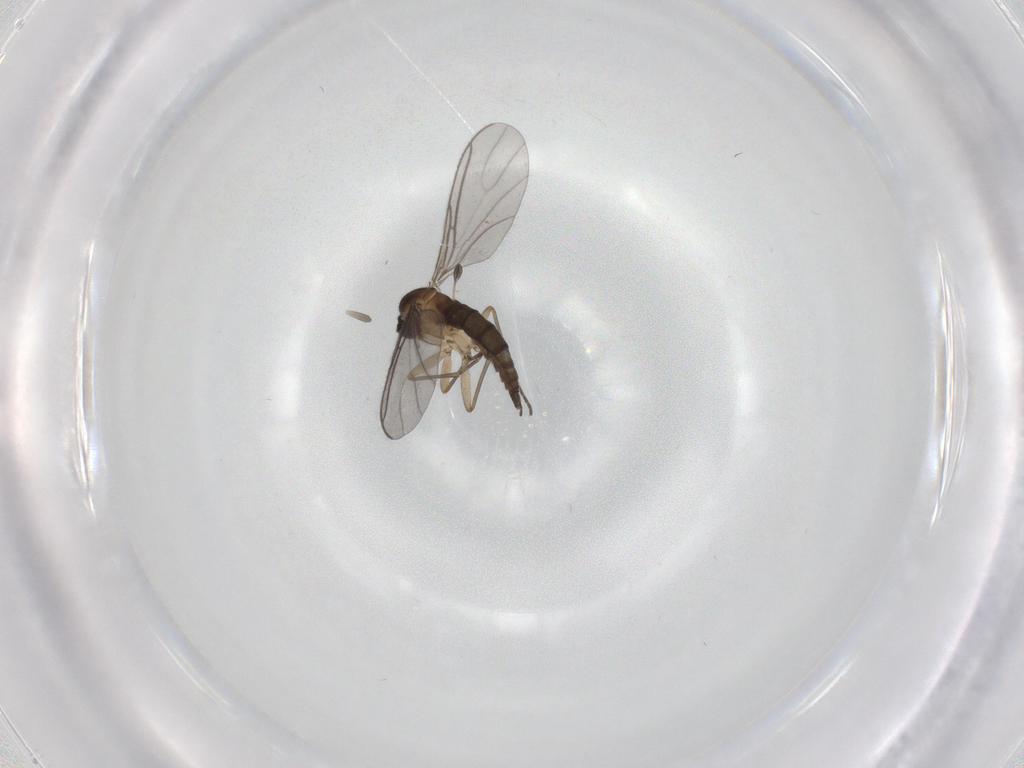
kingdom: Animalia
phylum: Arthropoda
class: Insecta
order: Diptera
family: Sciaridae
